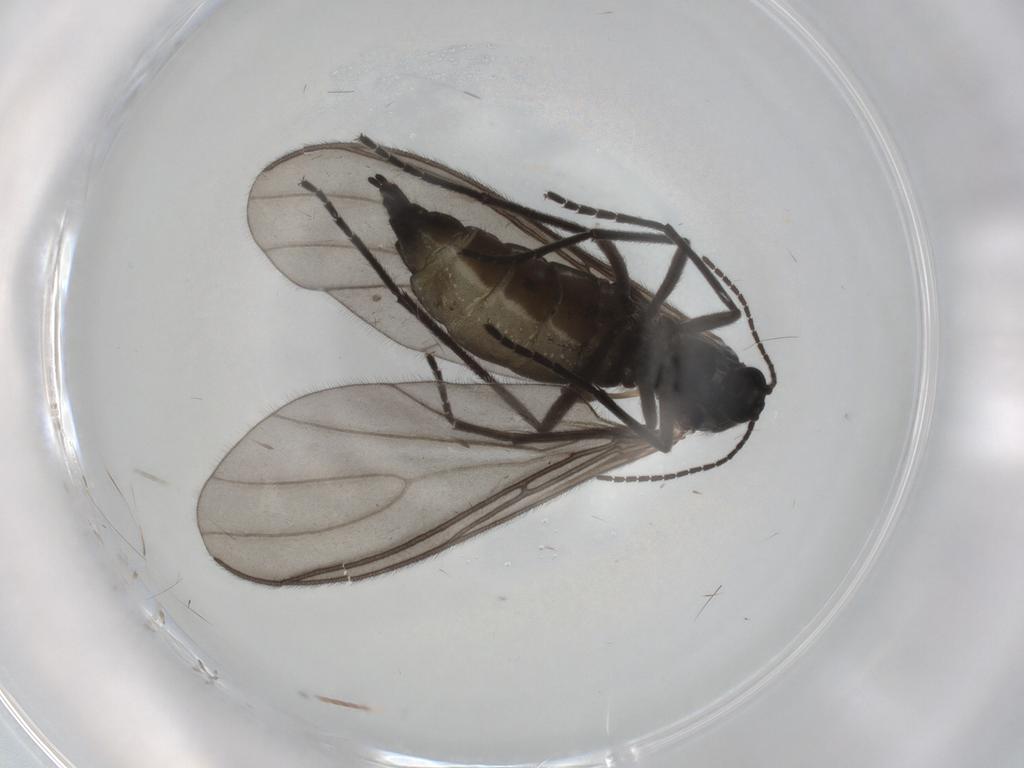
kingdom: Animalia
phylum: Arthropoda
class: Insecta
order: Diptera
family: Sciaridae
